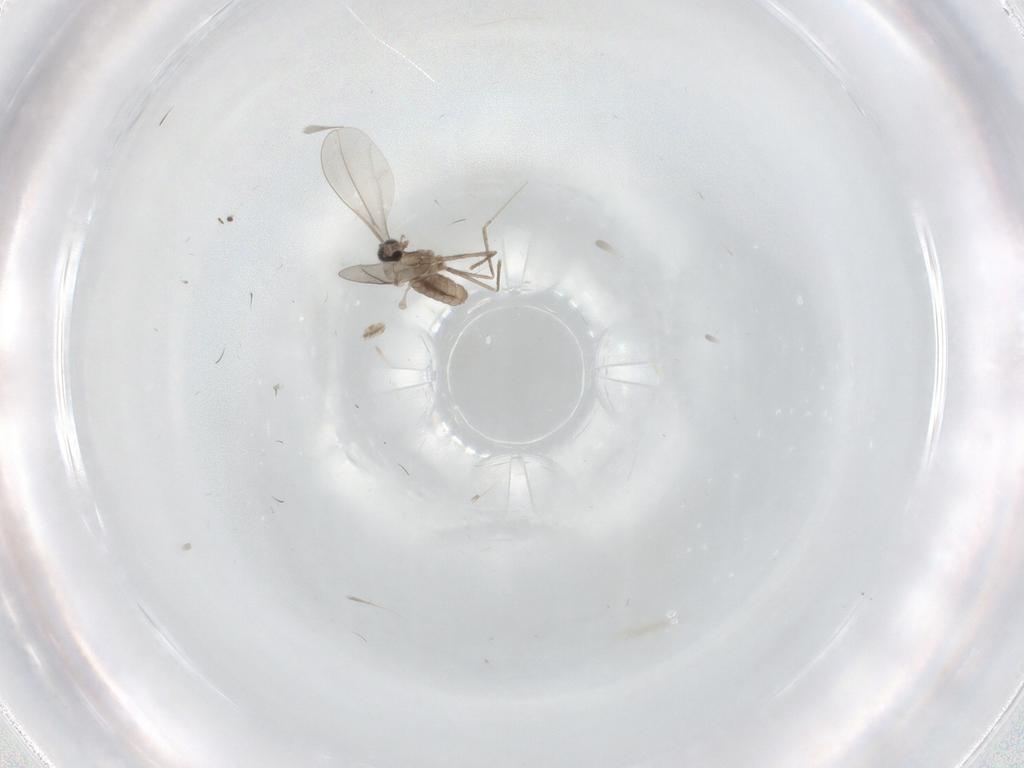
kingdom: Animalia
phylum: Arthropoda
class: Insecta
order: Diptera
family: Cecidomyiidae
